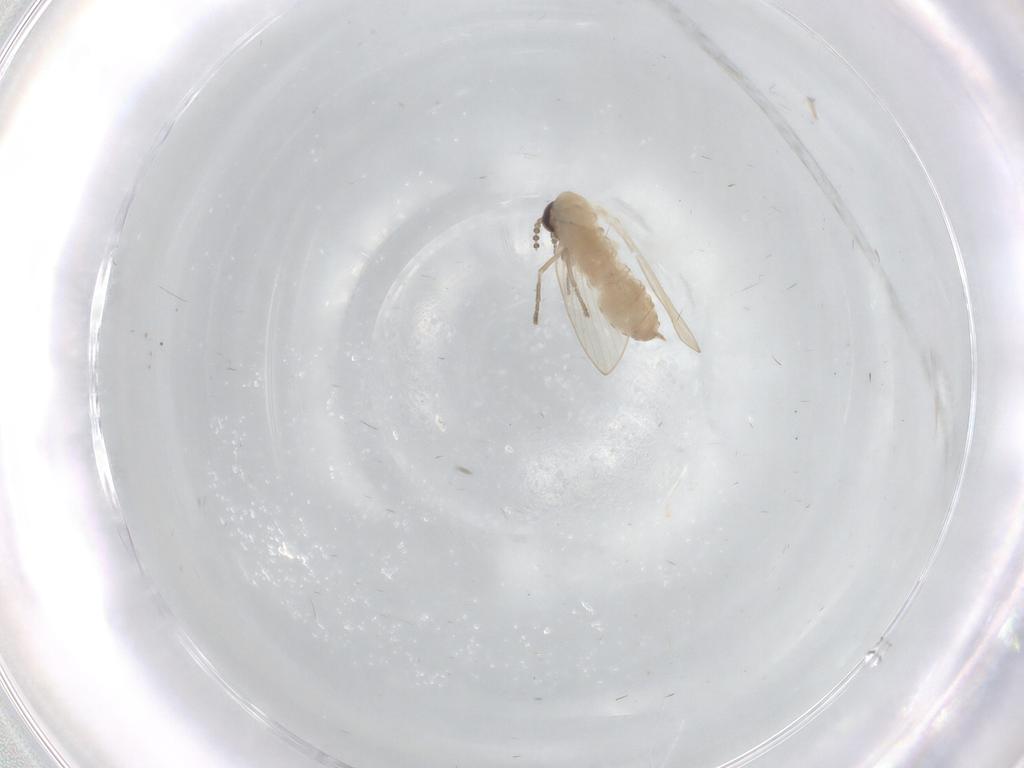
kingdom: Animalia
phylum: Arthropoda
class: Insecta
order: Diptera
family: Psychodidae
